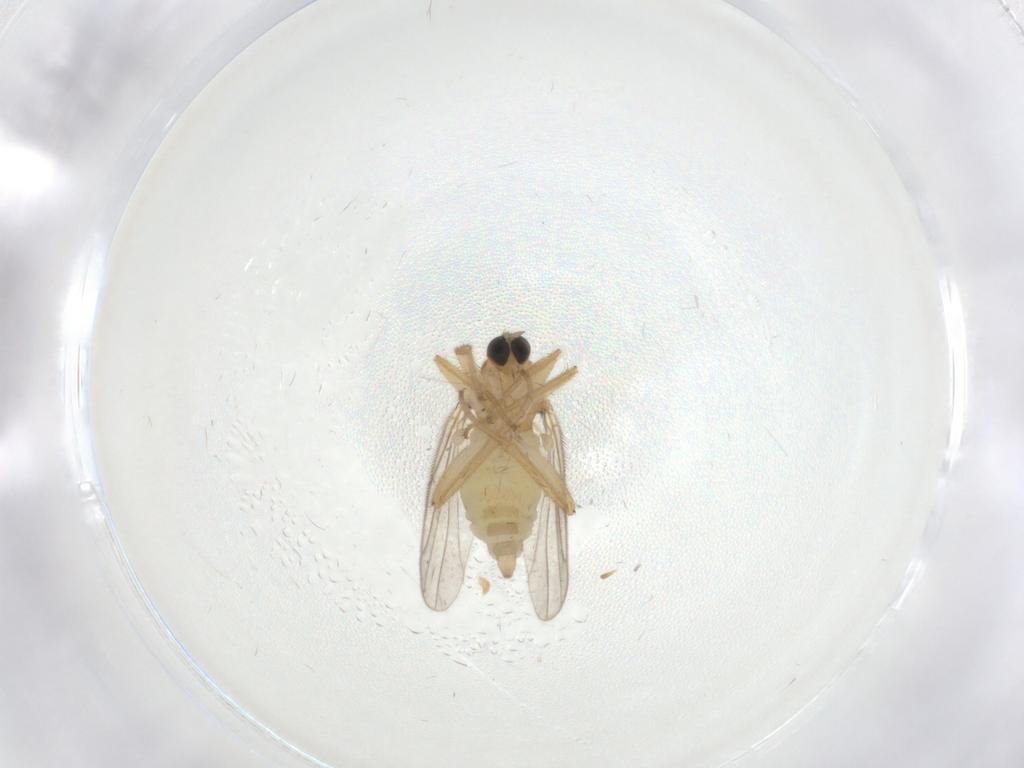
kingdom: Animalia
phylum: Arthropoda
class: Insecta
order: Diptera
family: Hybotidae
